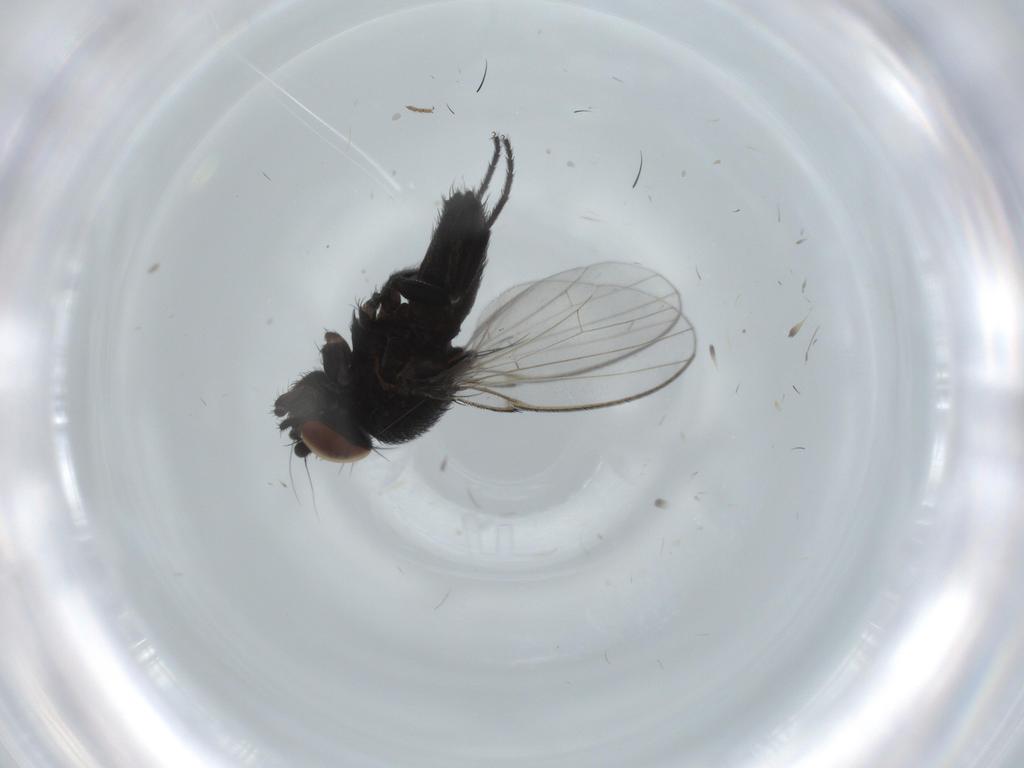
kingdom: Animalia
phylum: Arthropoda
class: Insecta
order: Diptera
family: Milichiidae
